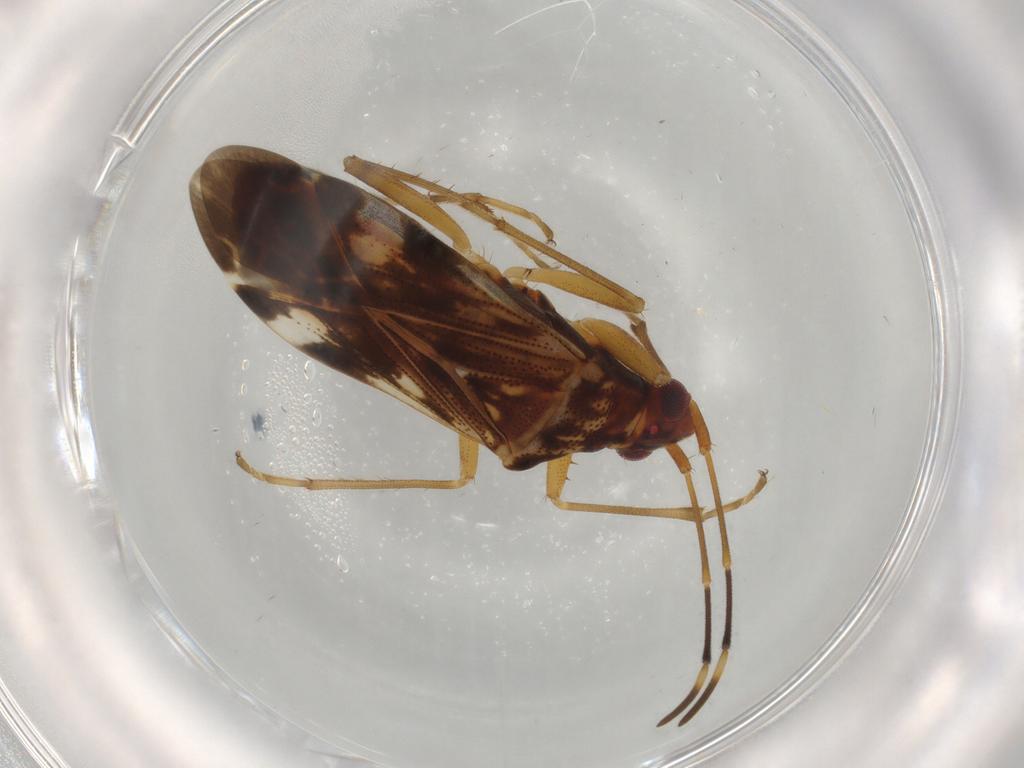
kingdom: Animalia
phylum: Arthropoda
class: Insecta
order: Hemiptera
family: Rhyparochromidae
